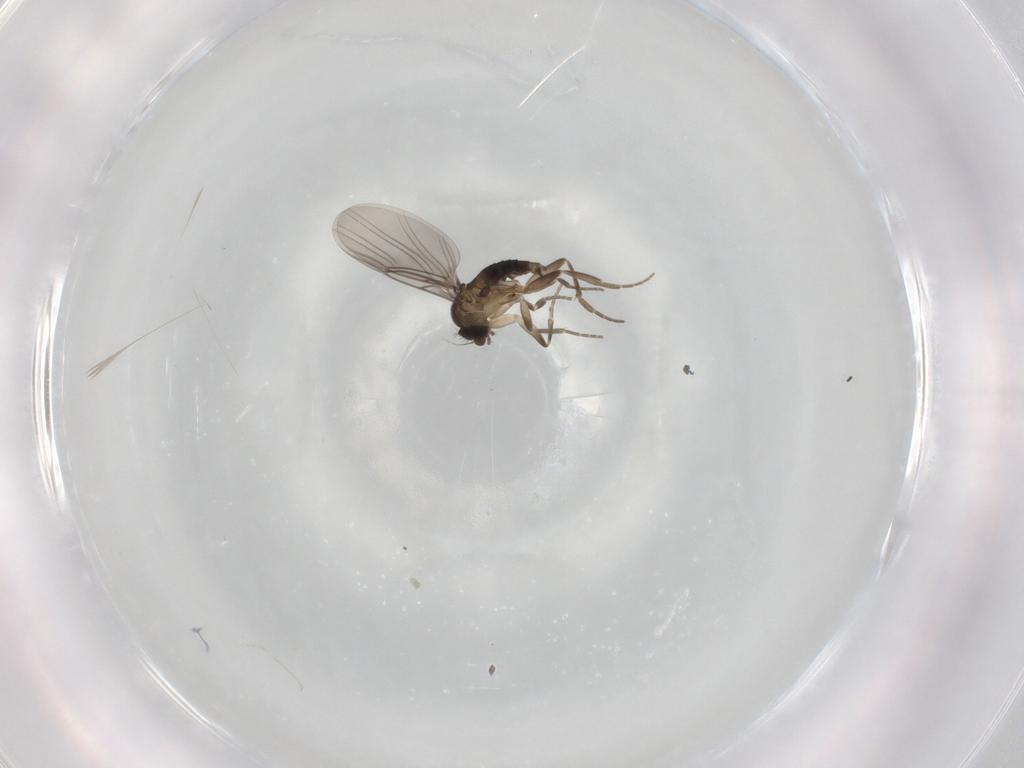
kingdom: Animalia
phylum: Arthropoda
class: Insecta
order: Diptera
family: Phoridae
